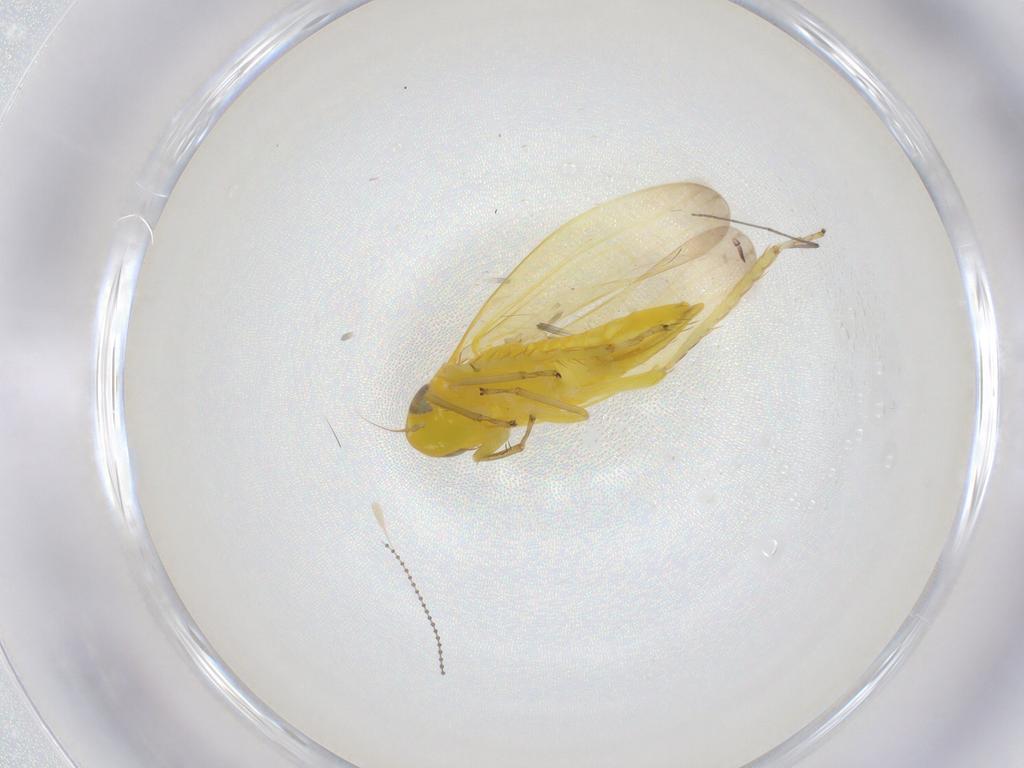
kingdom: Animalia
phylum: Arthropoda
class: Insecta
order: Hemiptera
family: Cicadellidae
